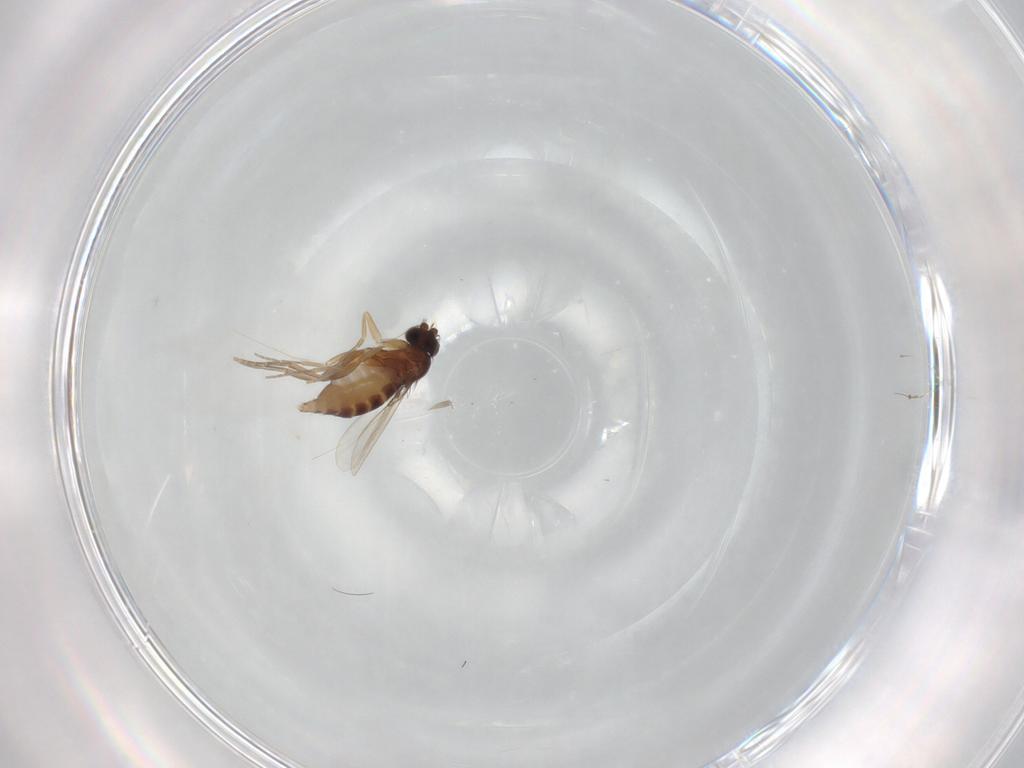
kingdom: Animalia
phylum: Arthropoda
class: Insecta
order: Diptera
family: Phoridae
